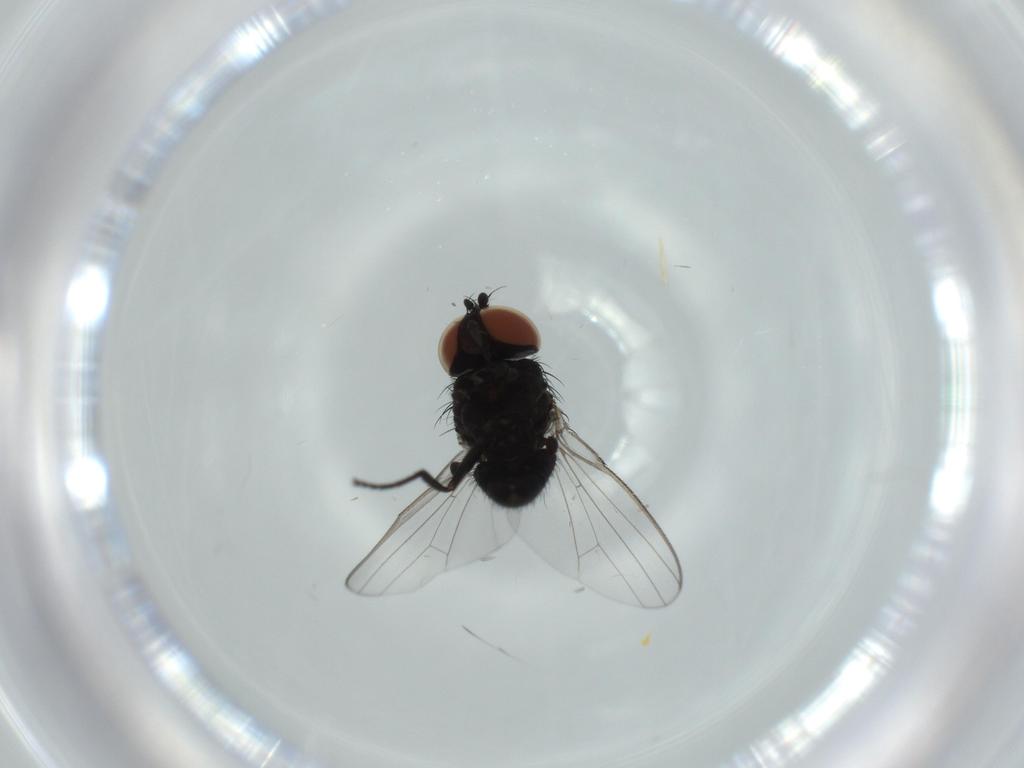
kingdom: Animalia
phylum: Arthropoda
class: Insecta
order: Diptera
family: Milichiidae
